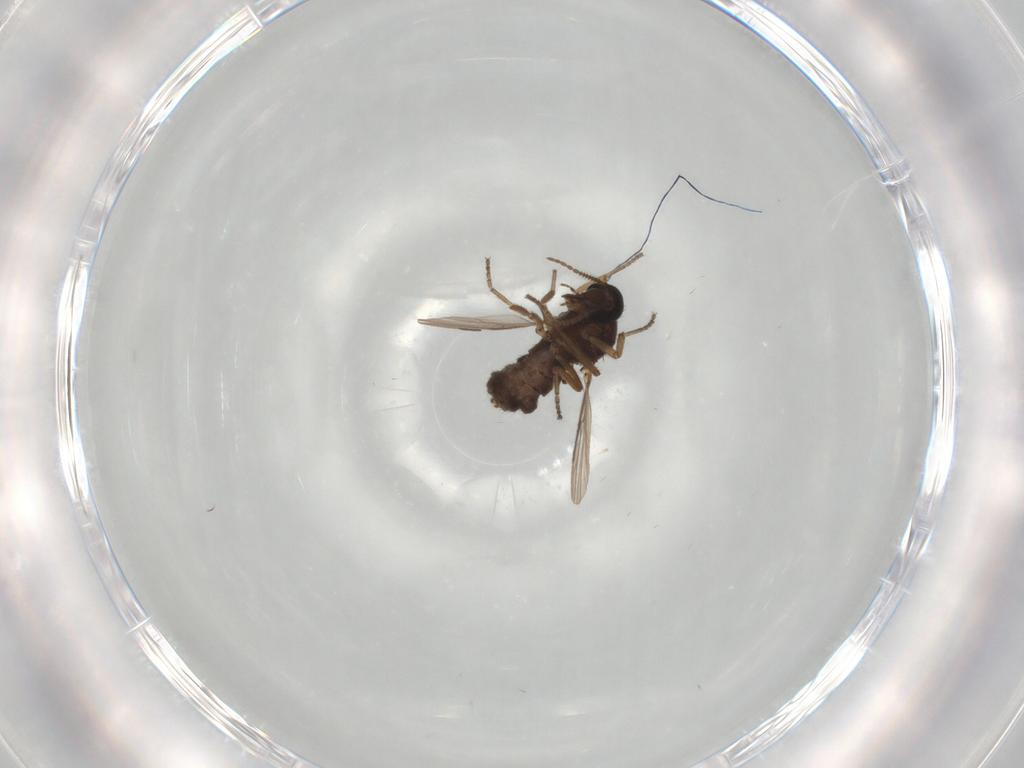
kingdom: Animalia
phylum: Arthropoda
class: Insecta
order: Diptera
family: Ceratopogonidae
